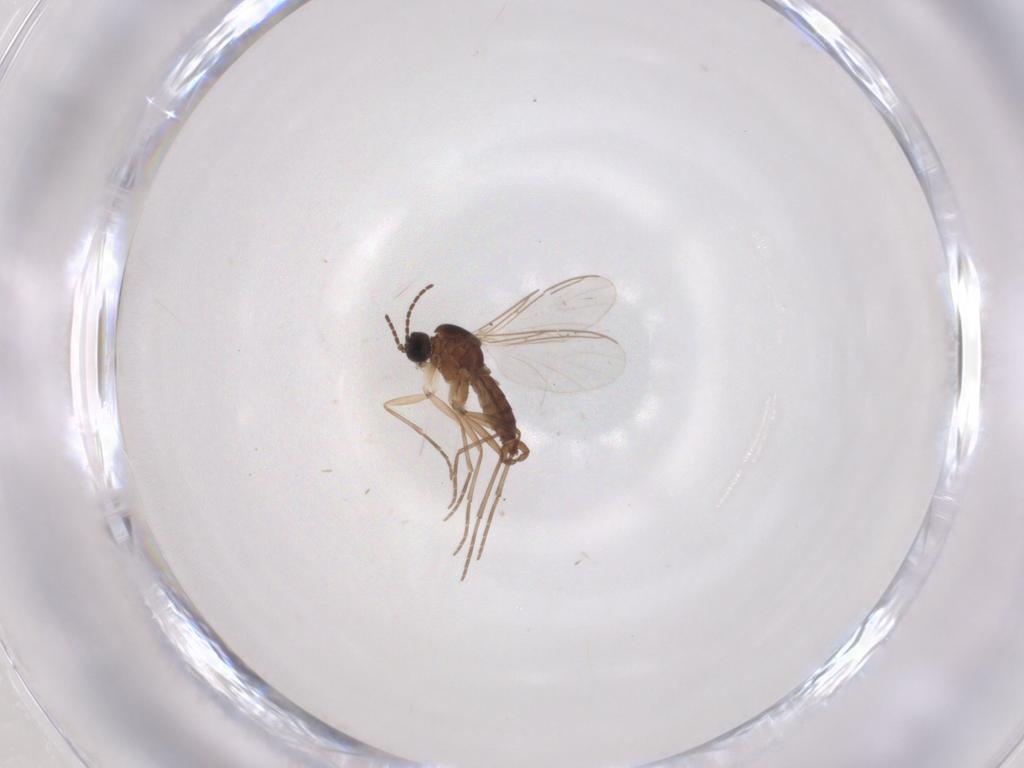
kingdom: Animalia
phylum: Arthropoda
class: Insecta
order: Diptera
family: Sciaridae
